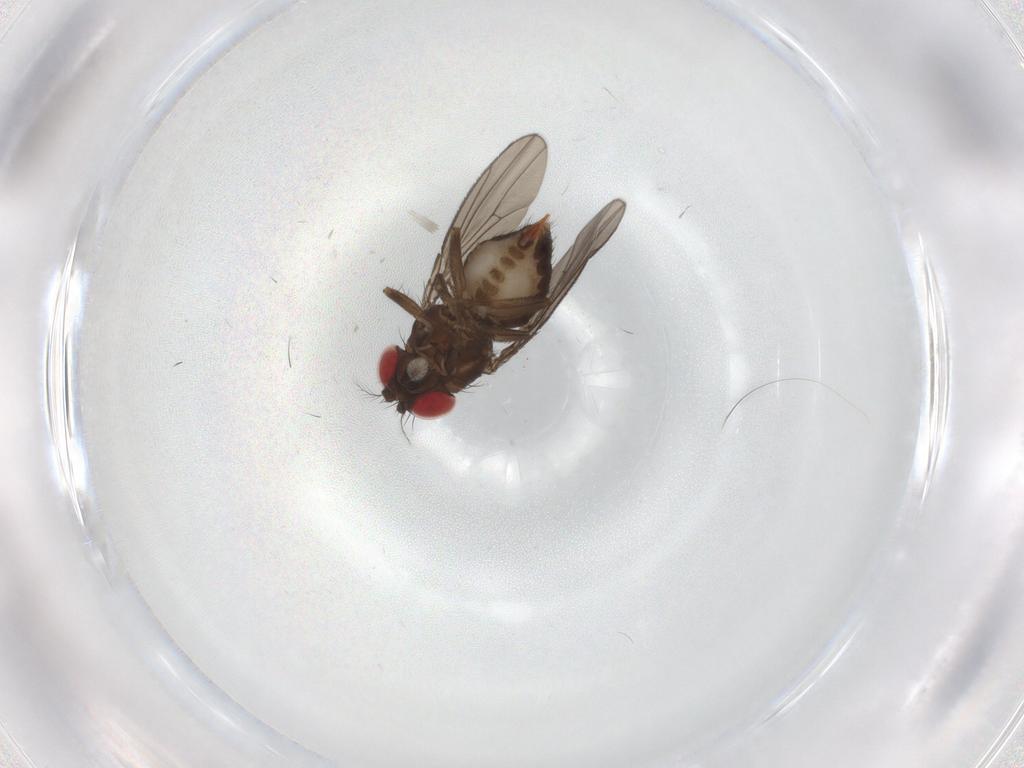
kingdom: Animalia
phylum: Arthropoda
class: Insecta
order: Diptera
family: Drosophilidae
